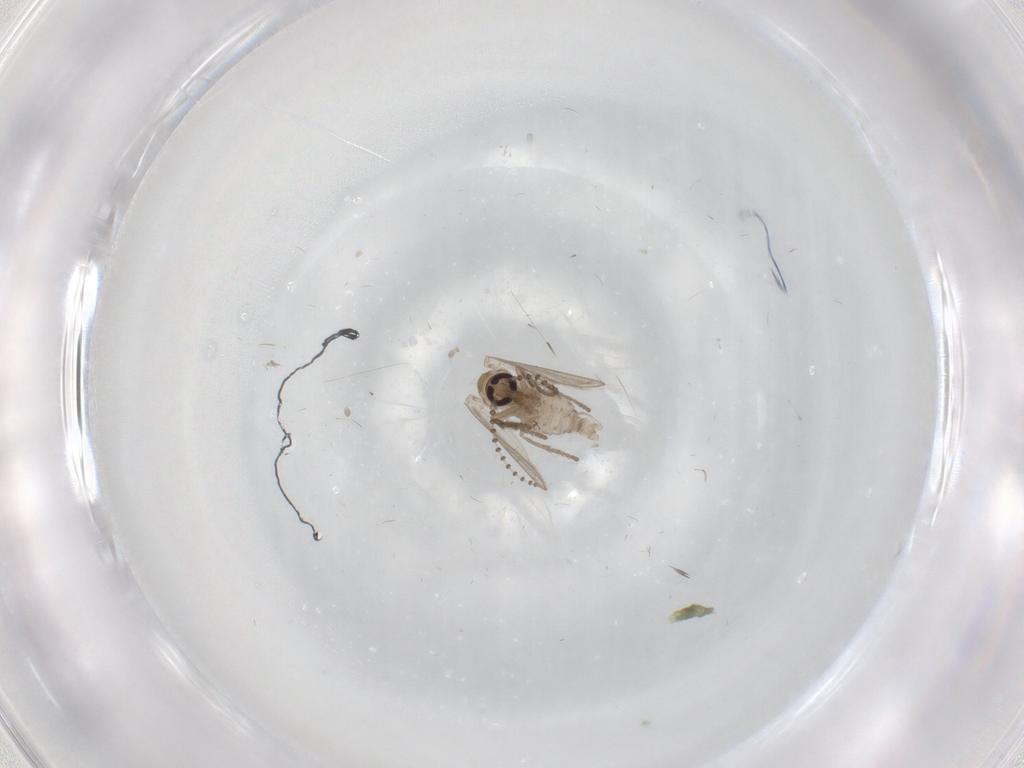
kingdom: Animalia
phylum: Arthropoda
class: Insecta
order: Diptera
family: Psychodidae
